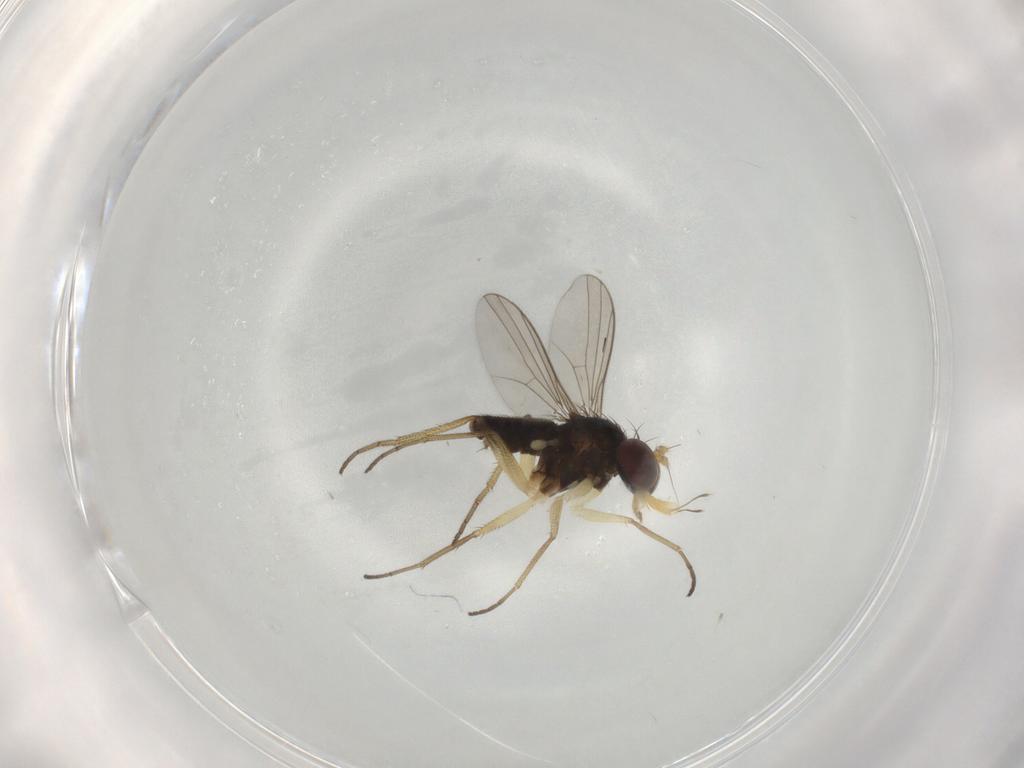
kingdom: Animalia
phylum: Arthropoda
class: Insecta
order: Diptera
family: Dolichopodidae
